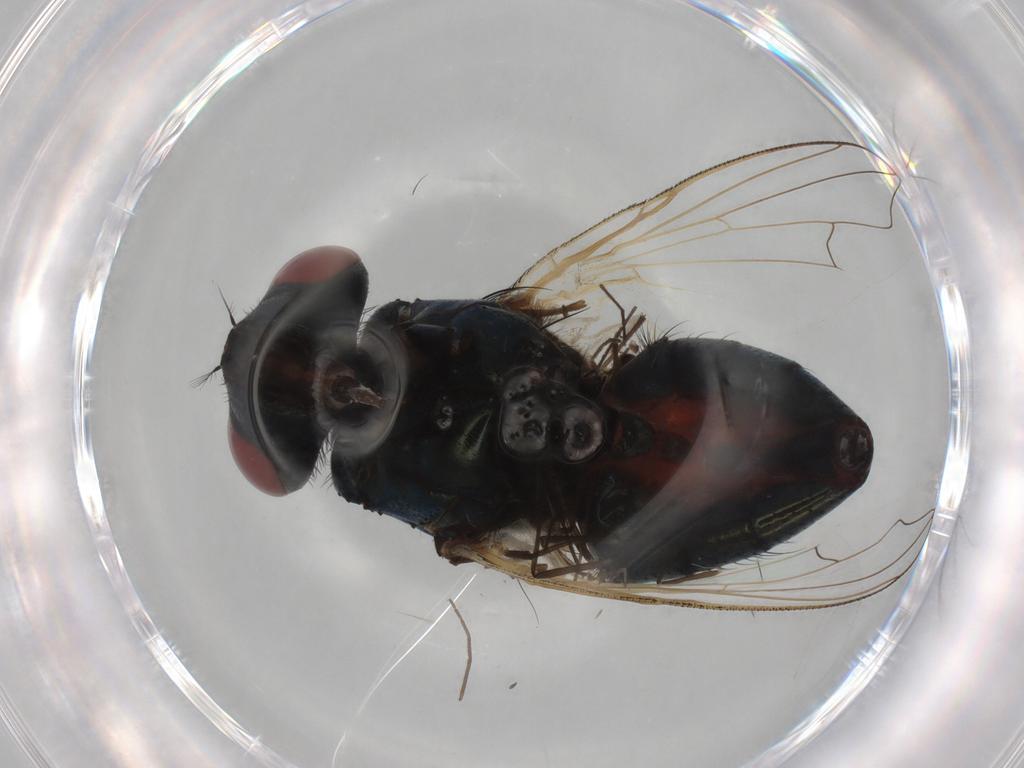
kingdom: Animalia
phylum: Arthropoda
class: Insecta
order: Diptera
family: Muscidae
